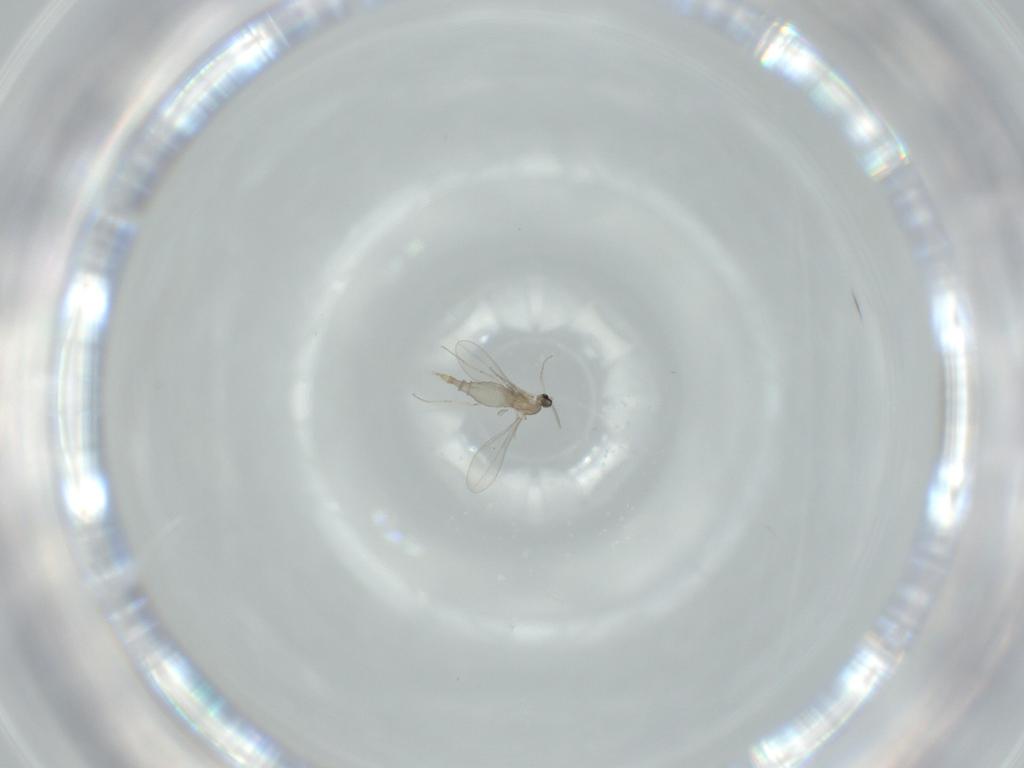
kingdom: Animalia
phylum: Arthropoda
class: Insecta
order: Diptera
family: Cecidomyiidae
